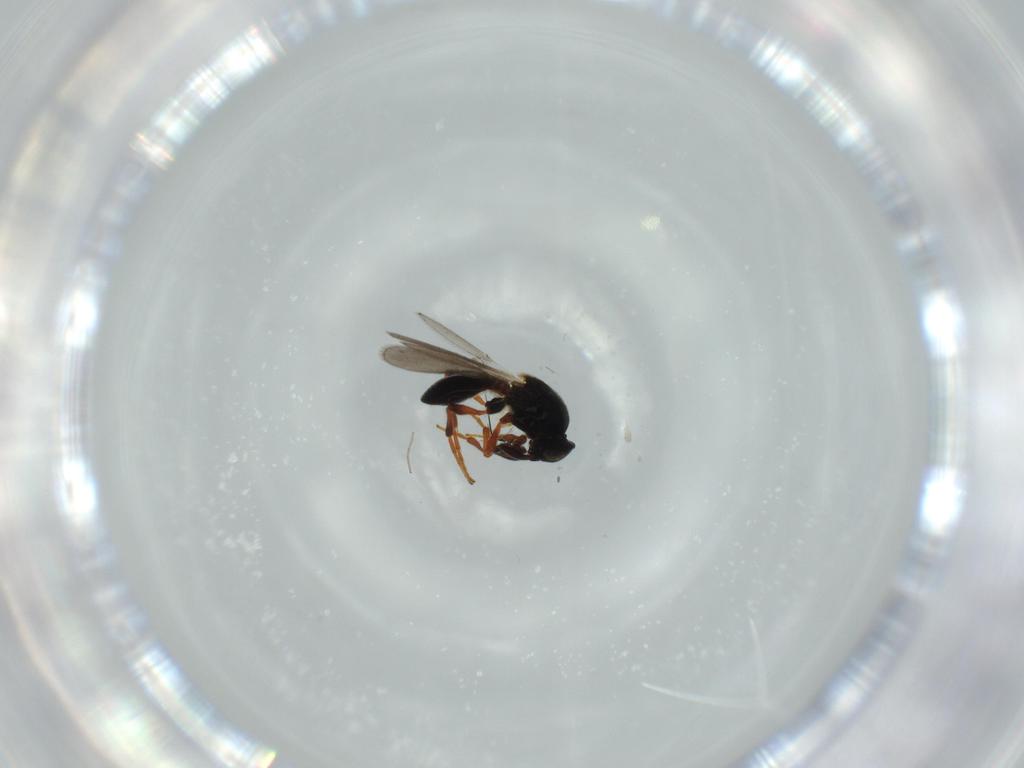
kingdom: Animalia
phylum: Arthropoda
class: Insecta
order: Hymenoptera
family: Platygastridae
